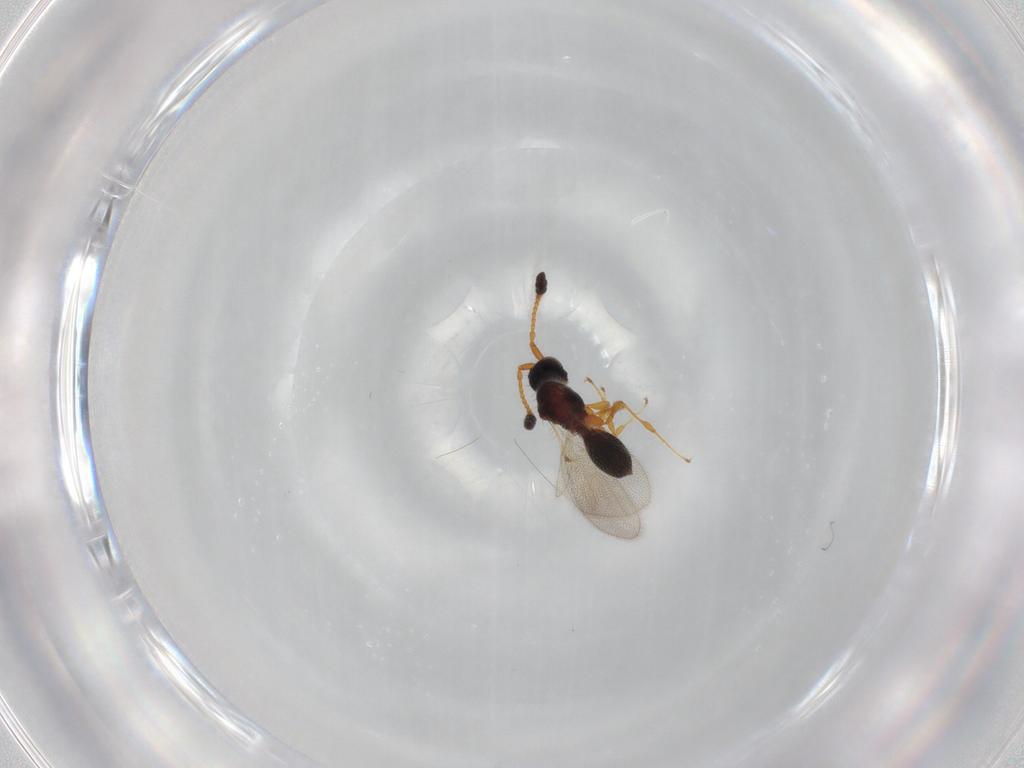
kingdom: Animalia
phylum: Arthropoda
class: Insecta
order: Hymenoptera
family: Diapriidae
